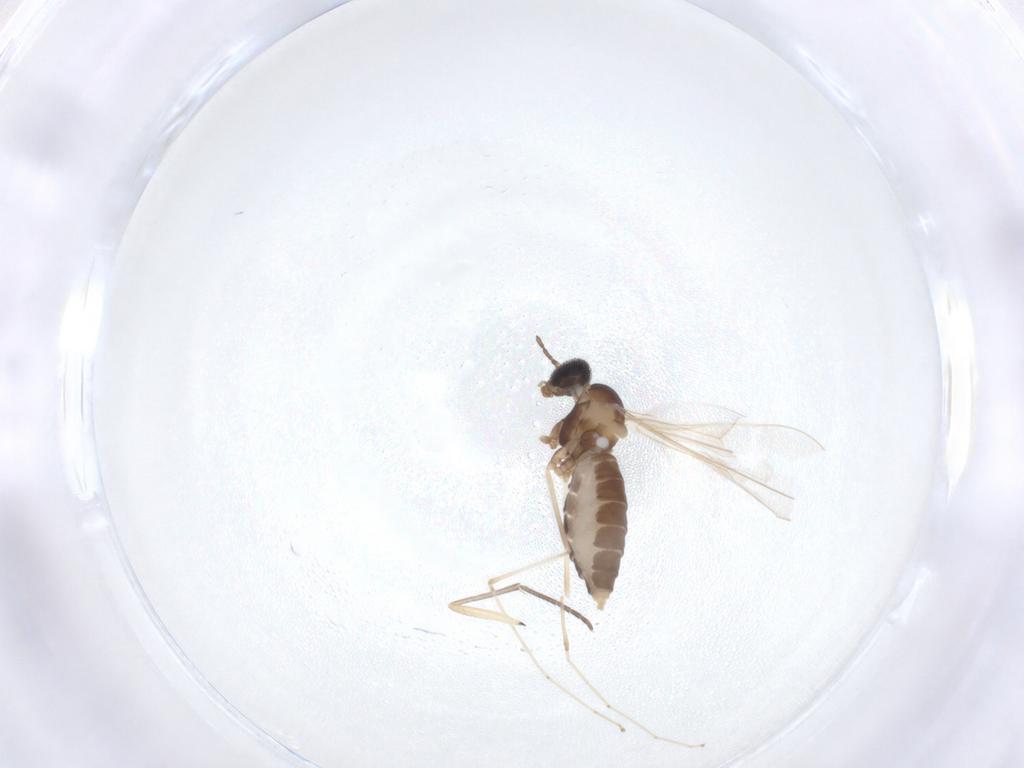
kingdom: Animalia
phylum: Arthropoda
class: Insecta
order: Diptera
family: Cecidomyiidae
